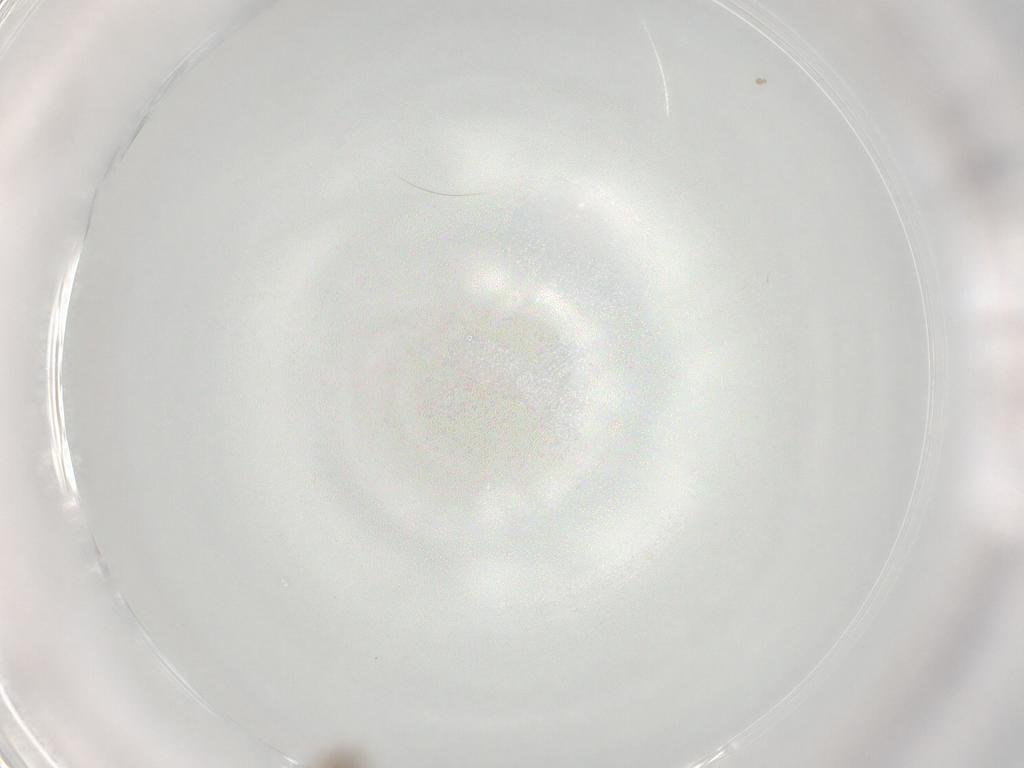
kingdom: Animalia
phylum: Arthropoda
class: Insecta
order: Diptera
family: Cecidomyiidae
